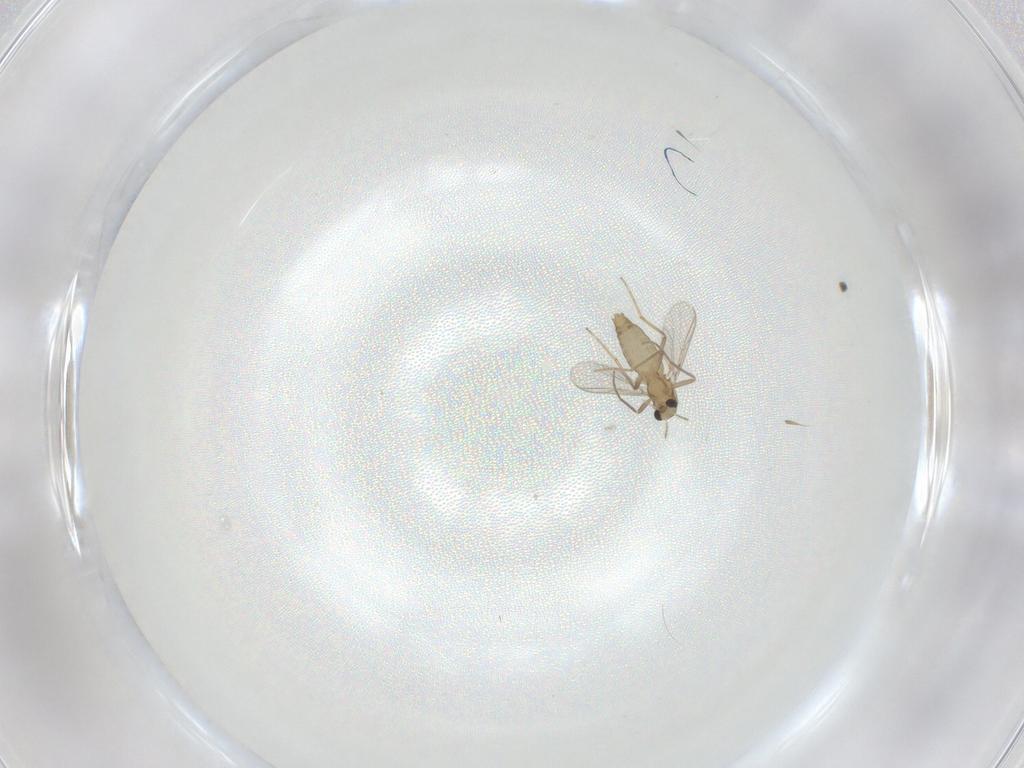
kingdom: Animalia
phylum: Arthropoda
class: Insecta
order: Diptera
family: Chironomidae
